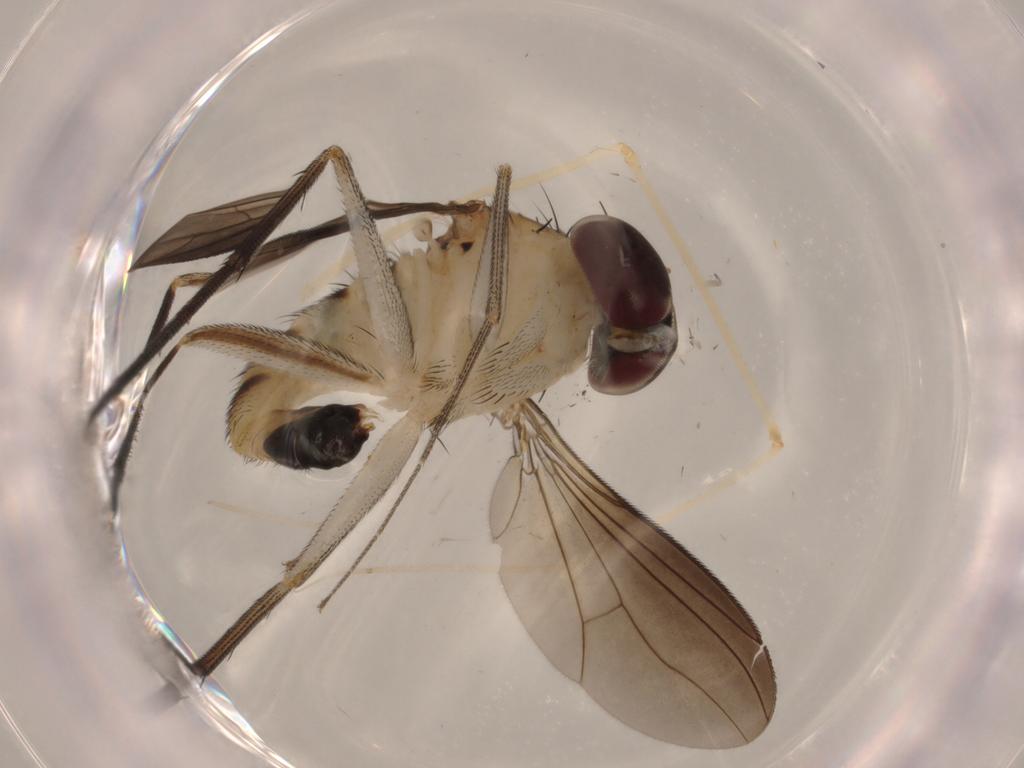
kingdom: Animalia
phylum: Arthropoda
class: Insecta
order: Diptera
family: Dolichopodidae
